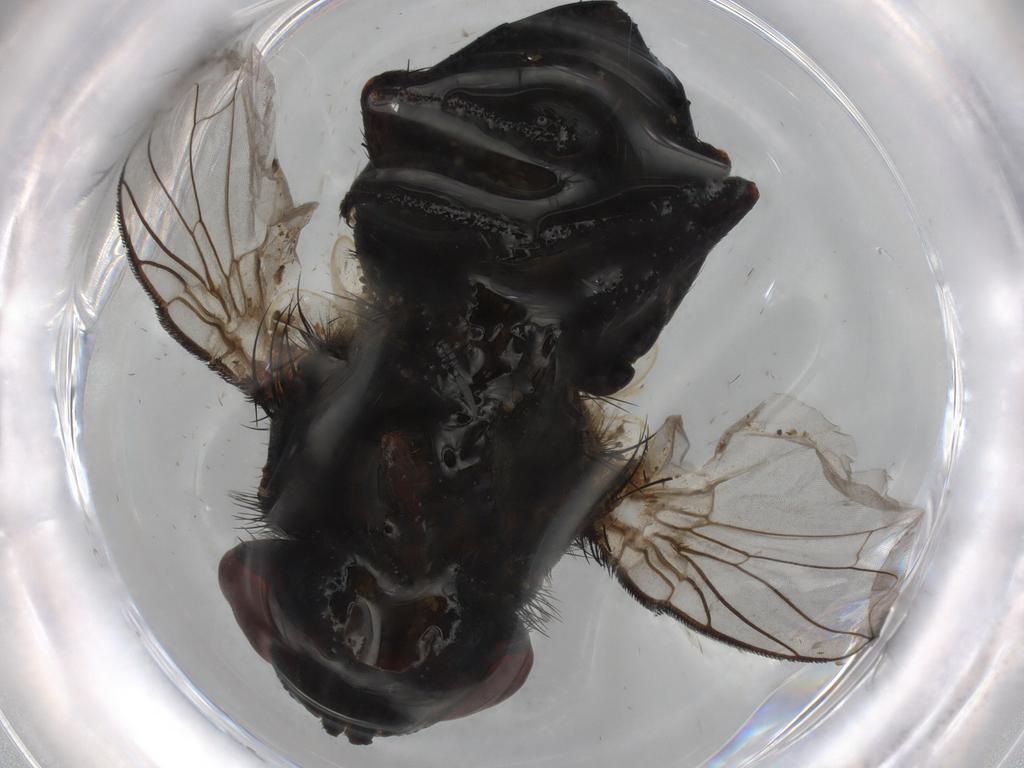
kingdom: Animalia
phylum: Arthropoda
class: Insecta
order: Diptera
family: Tachinidae
